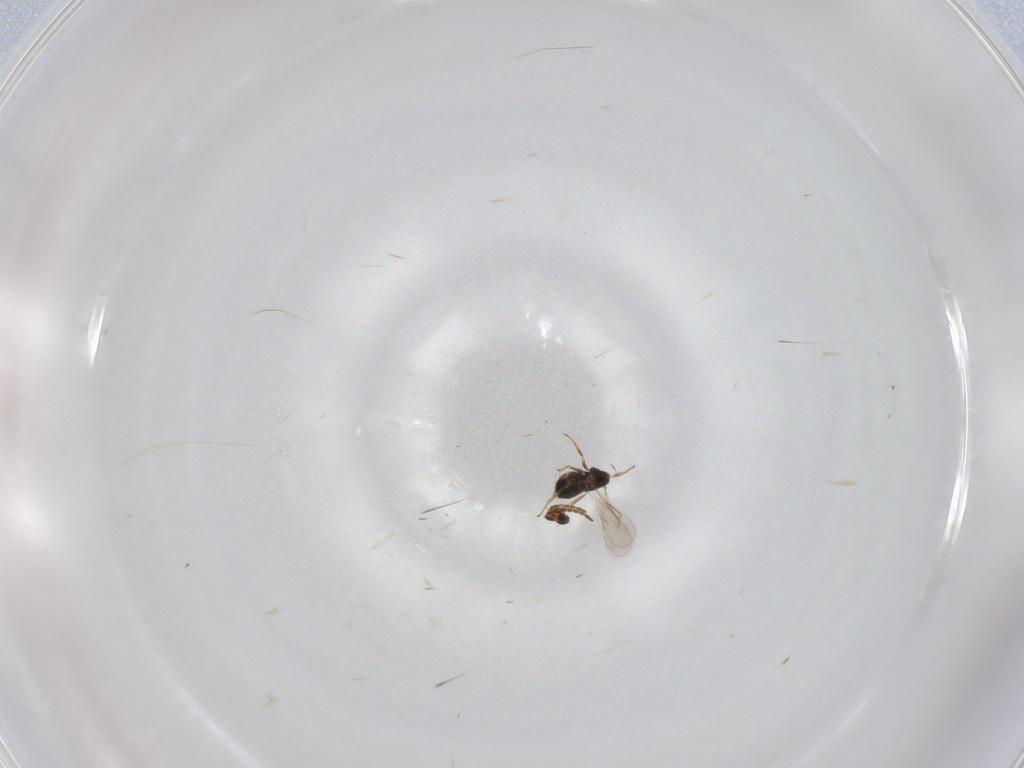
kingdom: Animalia
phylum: Arthropoda
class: Insecta
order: Hymenoptera
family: Aphelinidae
